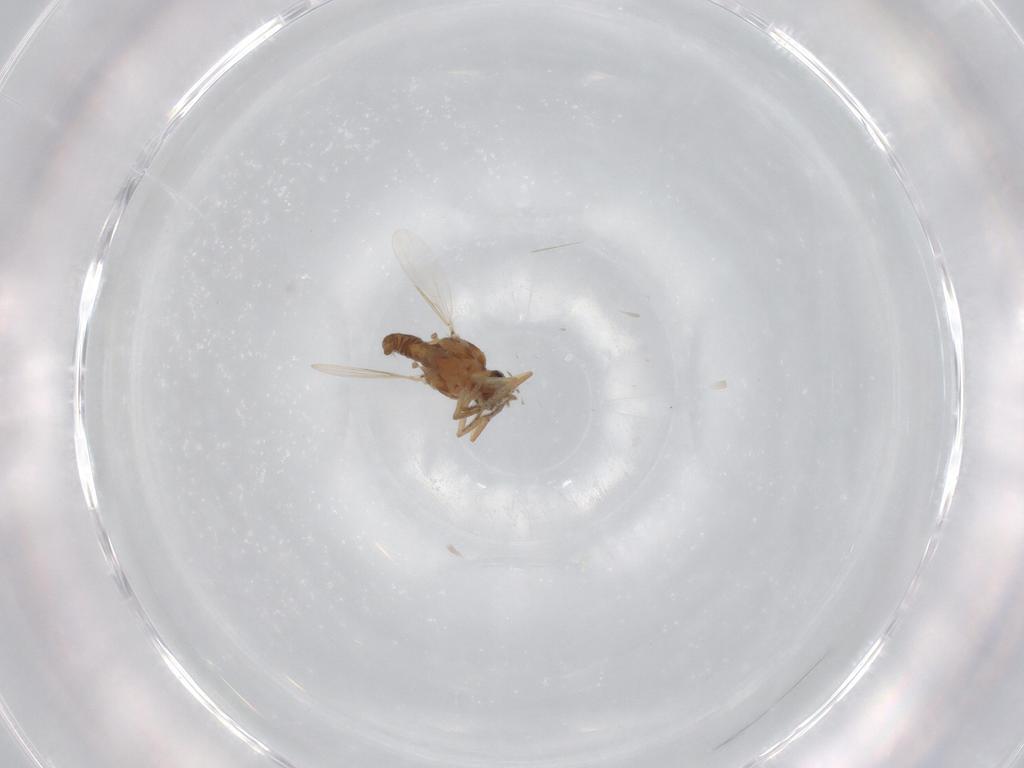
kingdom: Animalia
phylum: Arthropoda
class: Insecta
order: Diptera
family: Ceratopogonidae
